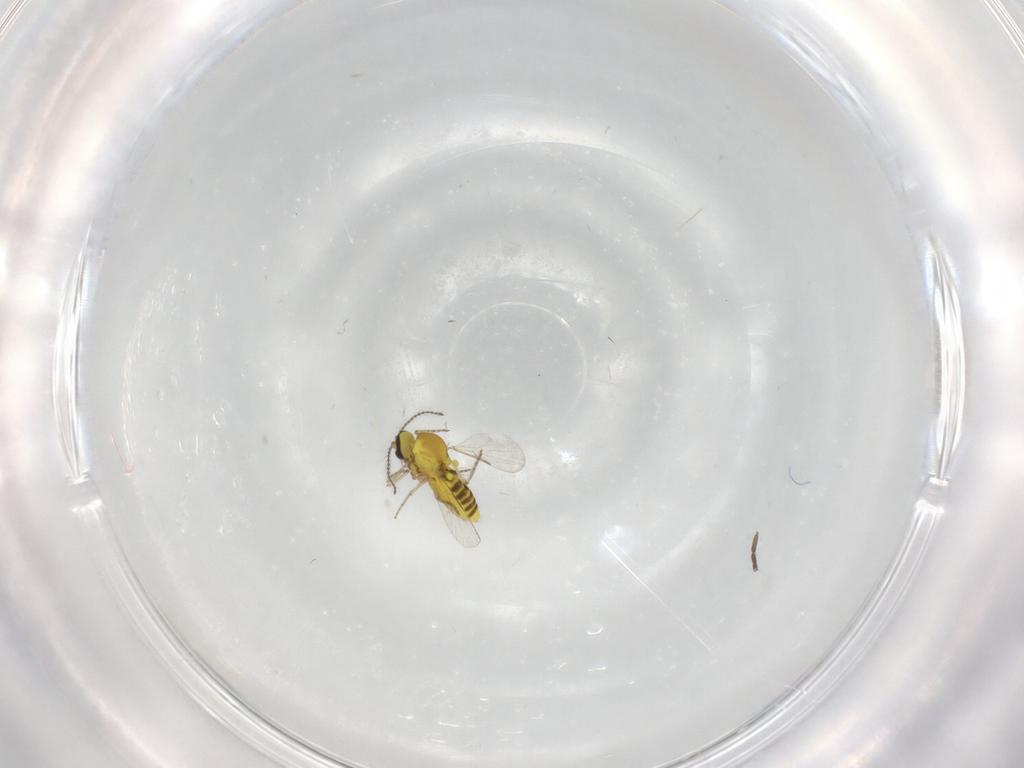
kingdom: Animalia
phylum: Arthropoda
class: Insecta
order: Diptera
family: Ceratopogonidae
